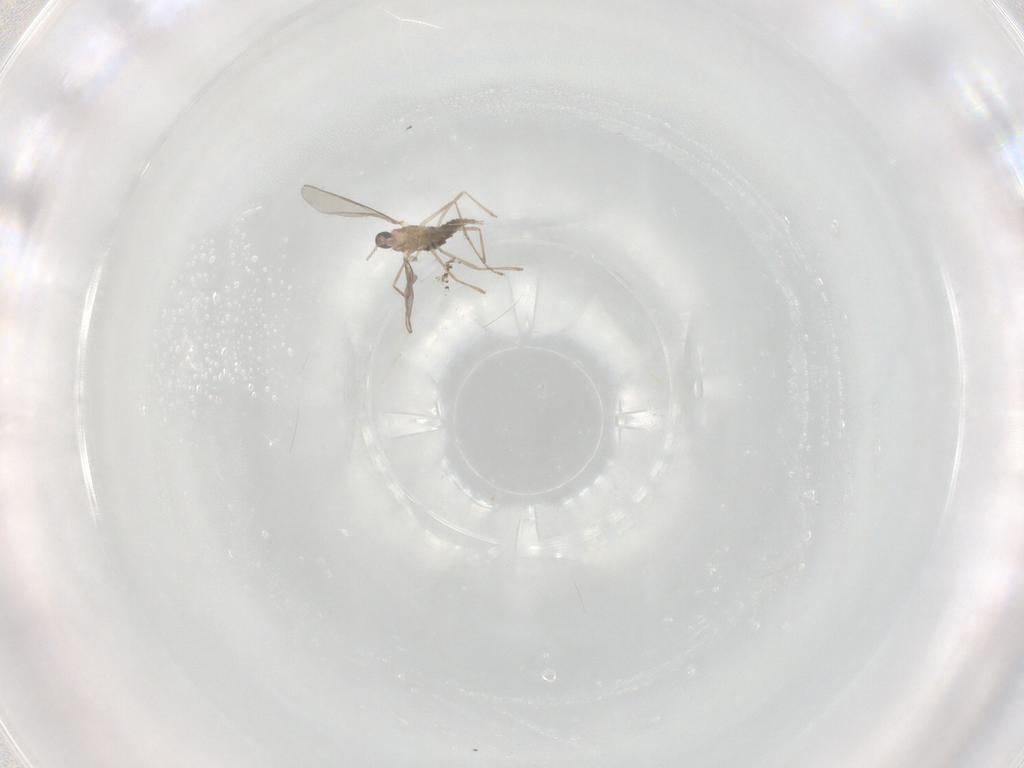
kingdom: Animalia
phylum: Arthropoda
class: Insecta
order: Diptera
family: Cecidomyiidae
